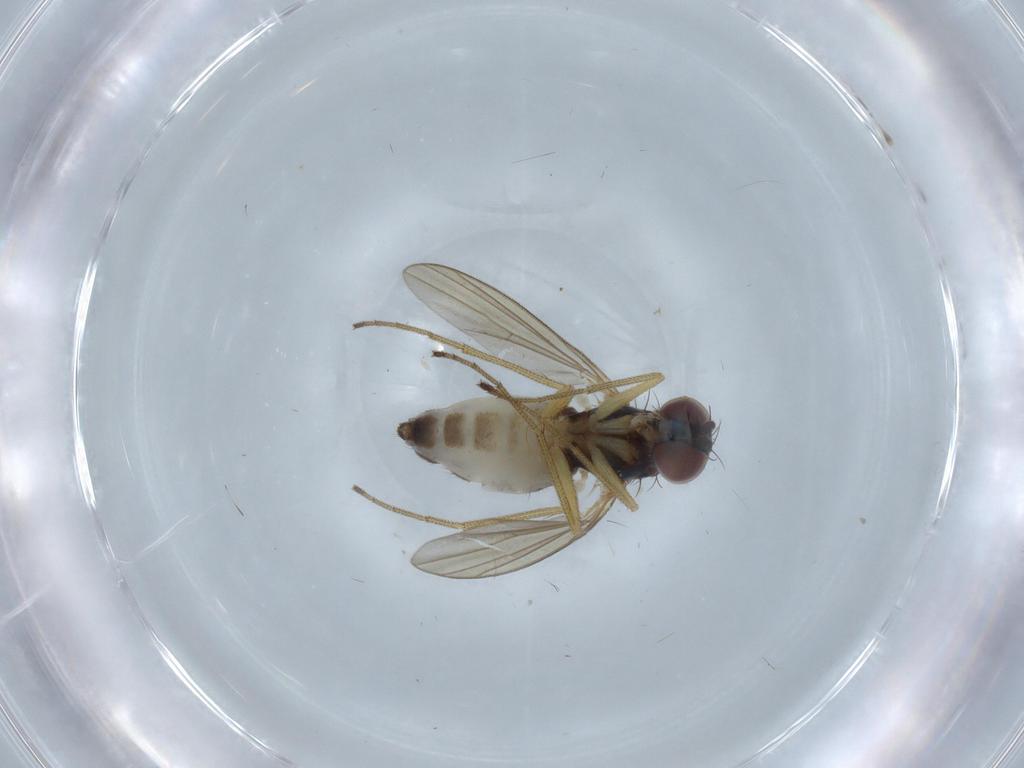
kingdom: Animalia
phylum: Arthropoda
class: Insecta
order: Diptera
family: Dolichopodidae
